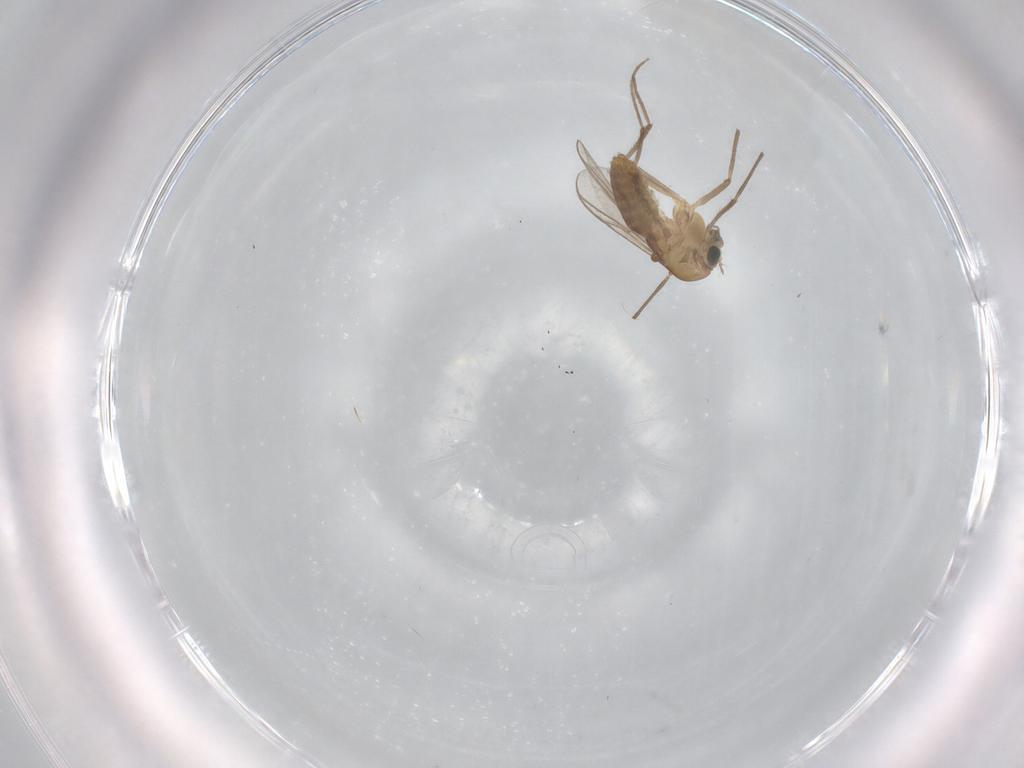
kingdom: Animalia
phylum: Arthropoda
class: Insecta
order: Diptera
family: Chironomidae
